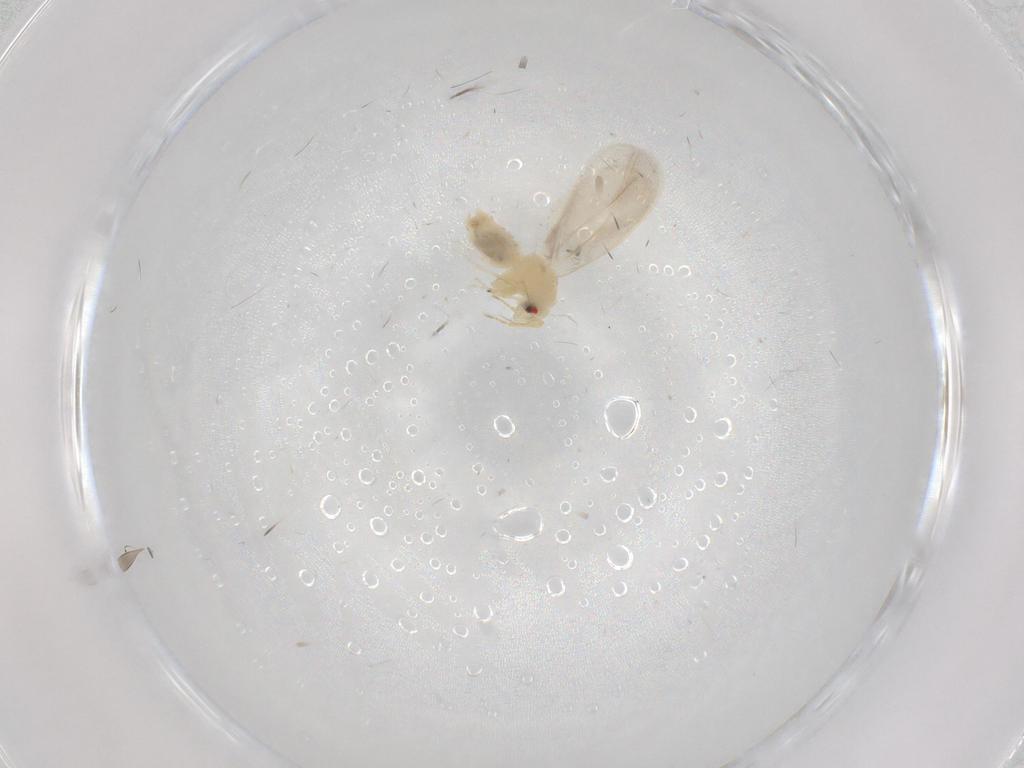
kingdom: Animalia
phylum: Arthropoda
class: Insecta
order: Hemiptera
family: Aleyrodidae
